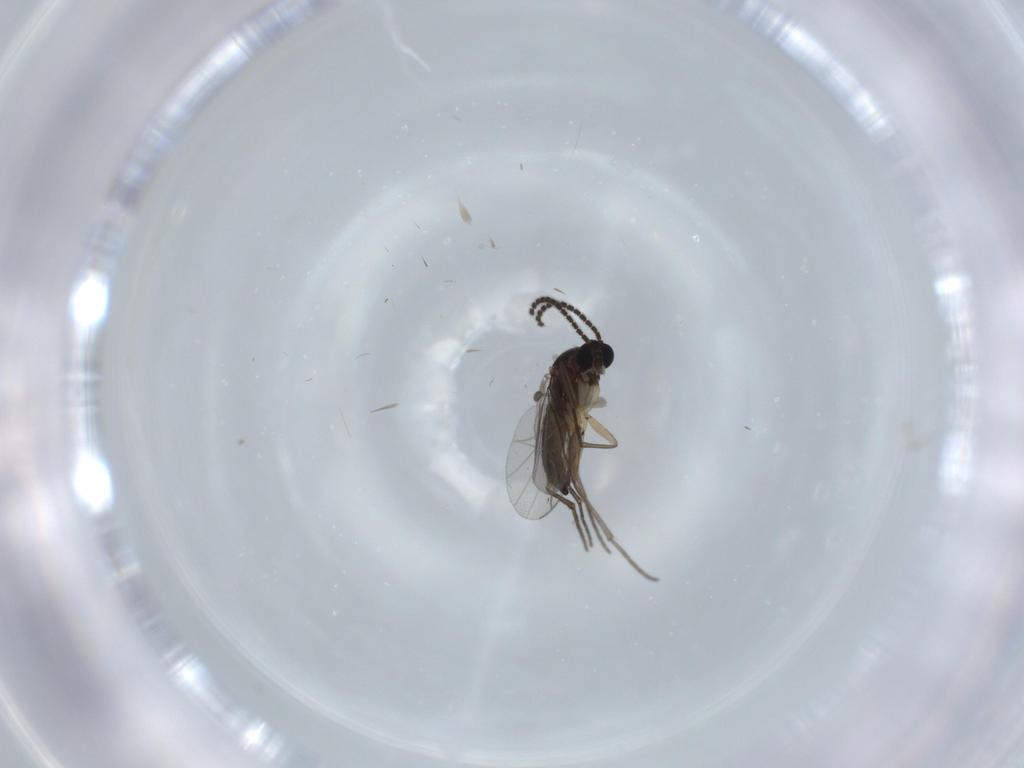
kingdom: Animalia
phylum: Arthropoda
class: Insecta
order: Diptera
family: Sciaridae
